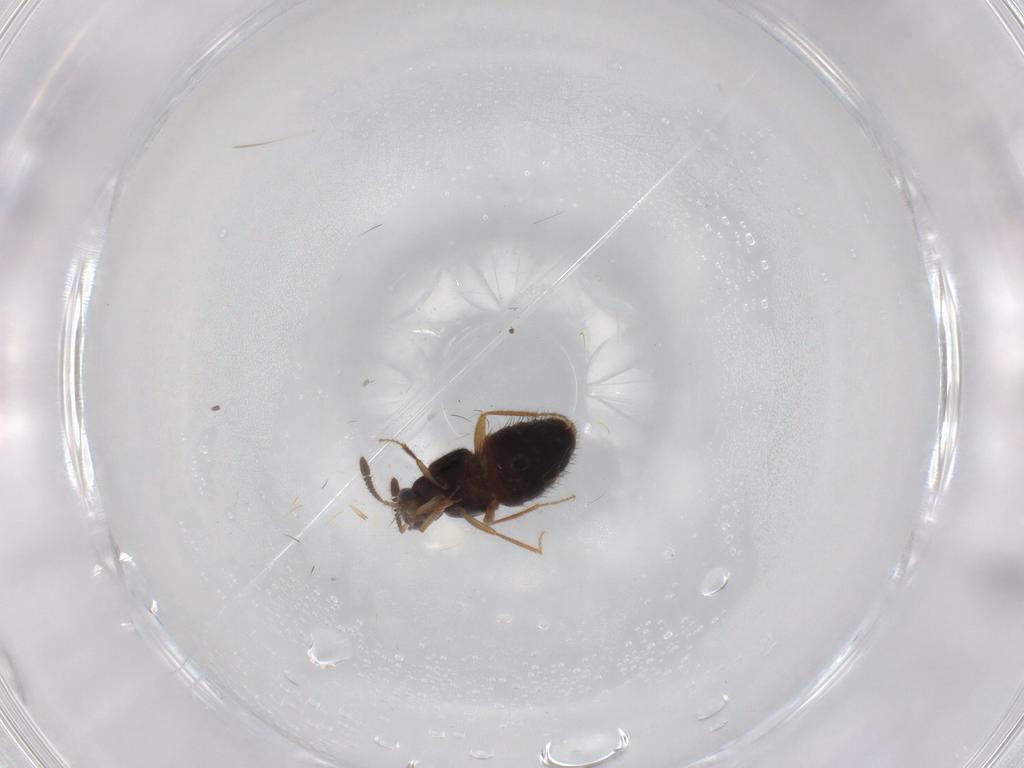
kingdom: Animalia
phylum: Arthropoda
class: Insecta
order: Coleoptera
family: Staphylinidae
